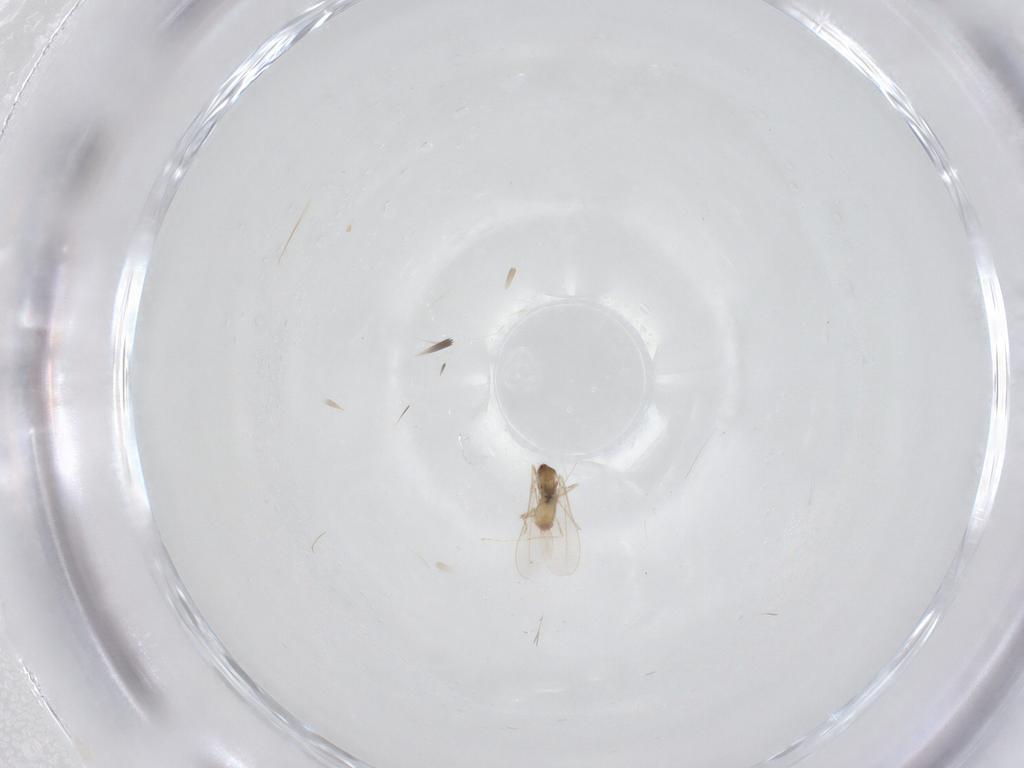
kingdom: Animalia
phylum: Arthropoda
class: Insecta
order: Diptera
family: Cecidomyiidae
